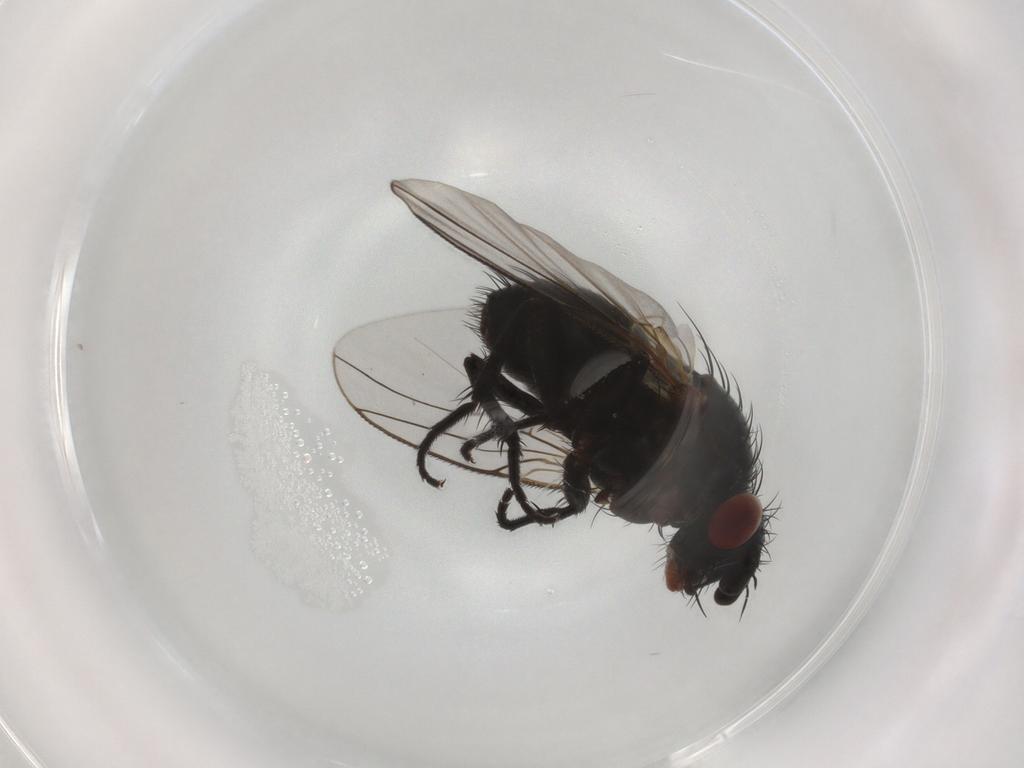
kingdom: Animalia
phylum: Arthropoda
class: Insecta
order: Diptera
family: Tachinidae
